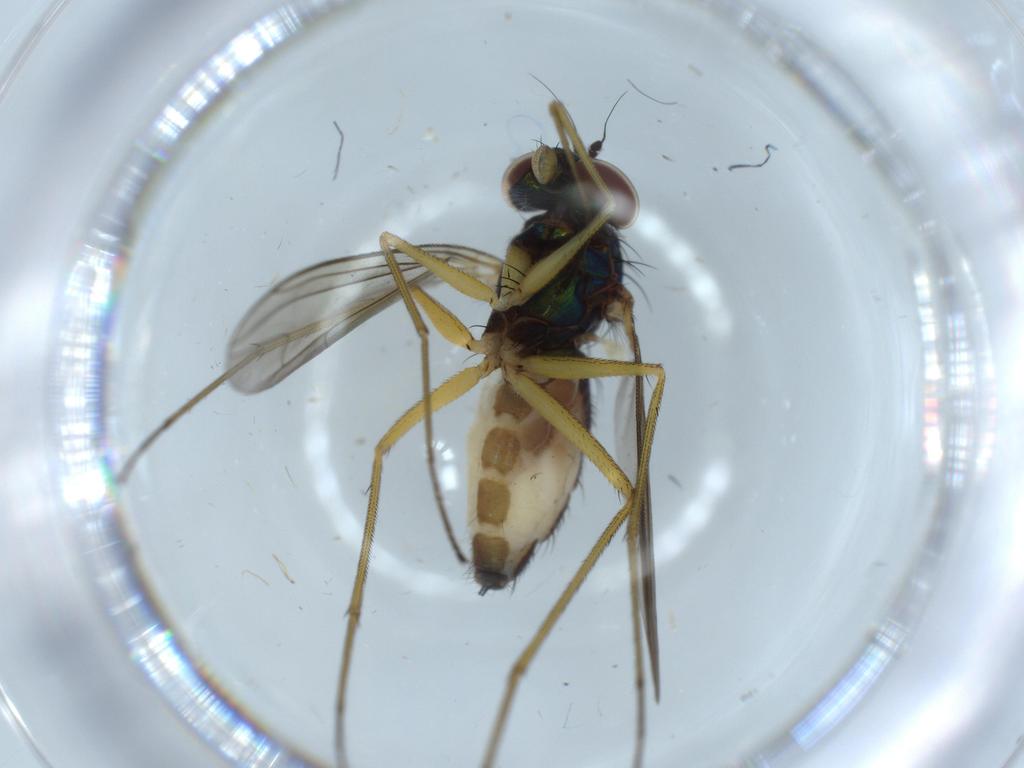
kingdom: Animalia
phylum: Arthropoda
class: Insecta
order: Diptera
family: Dolichopodidae
